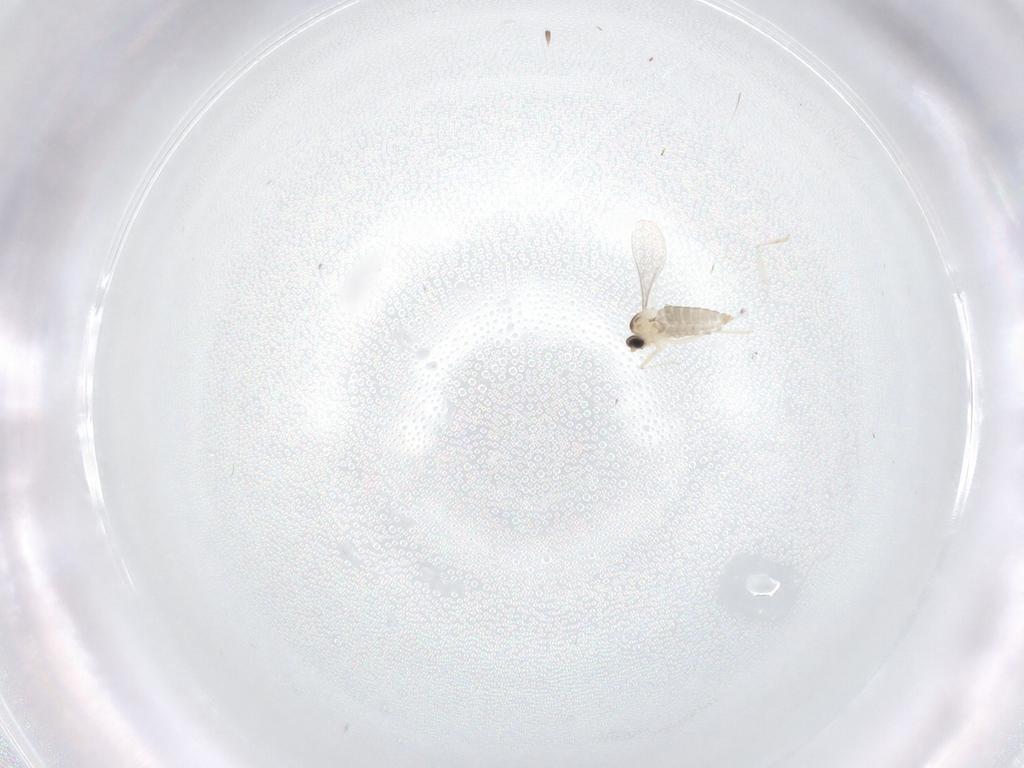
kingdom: Animalia
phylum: Arthropoda
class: Insecta
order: Diptera
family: Cecidomyiidae
